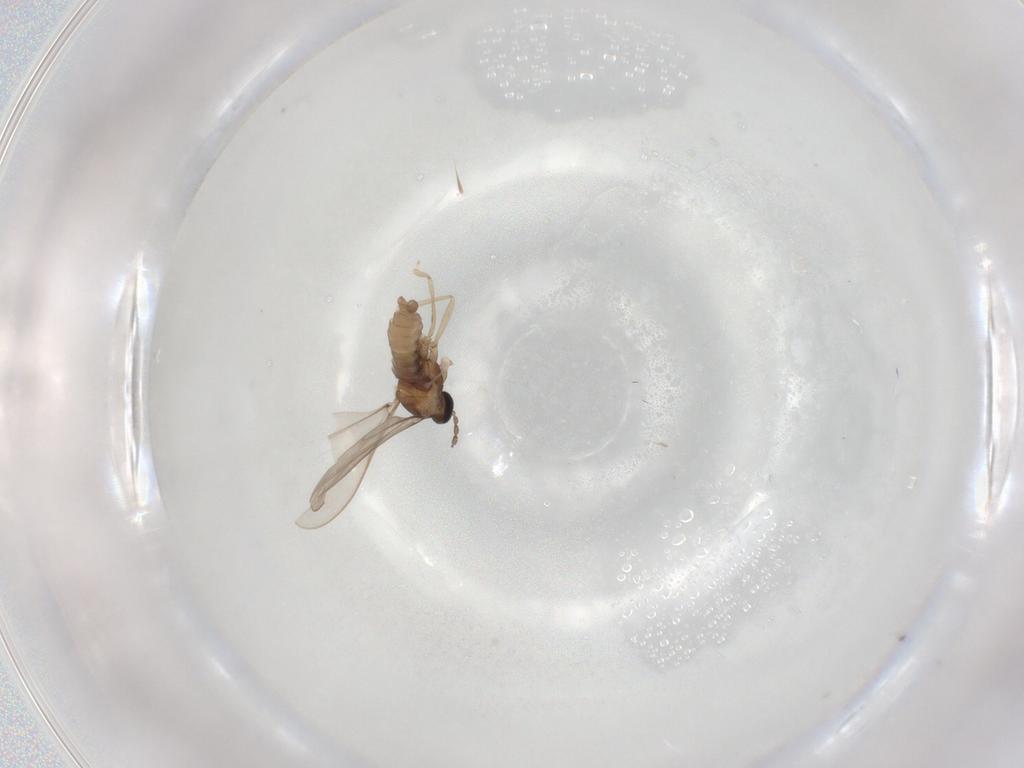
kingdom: Animalia
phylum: Arthropoda
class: Insecta
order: Diptera
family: Cecidomyiidae
